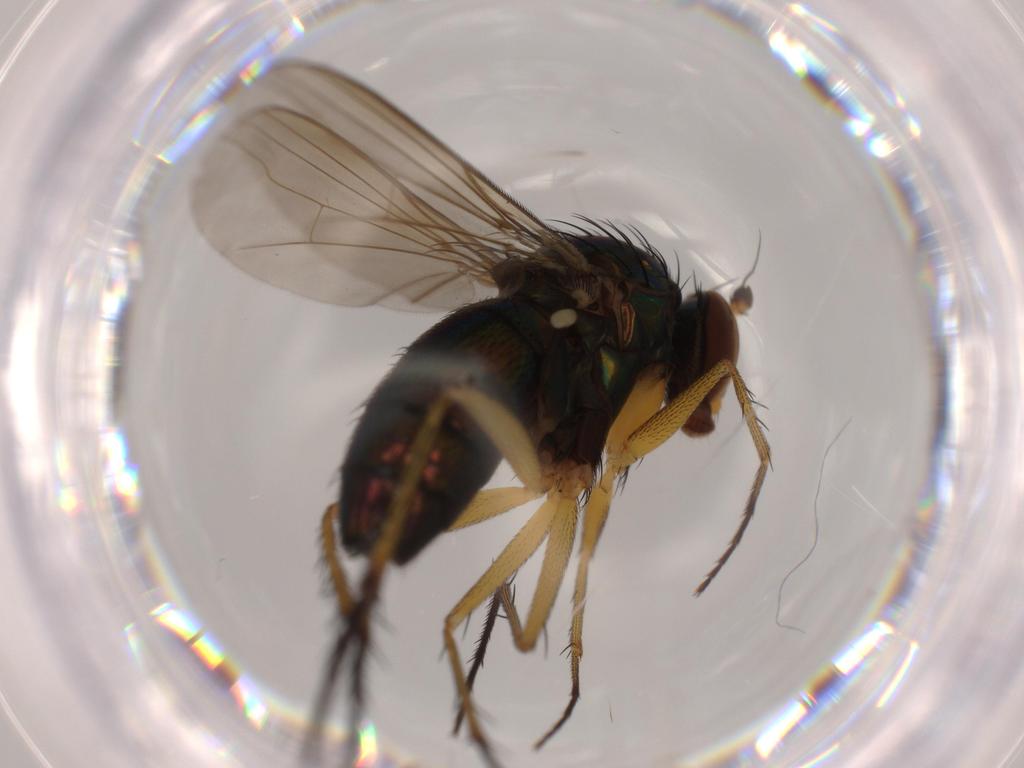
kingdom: Animalia
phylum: Arthropoda
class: Insecta
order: Diptera
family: Dolichopodidae
